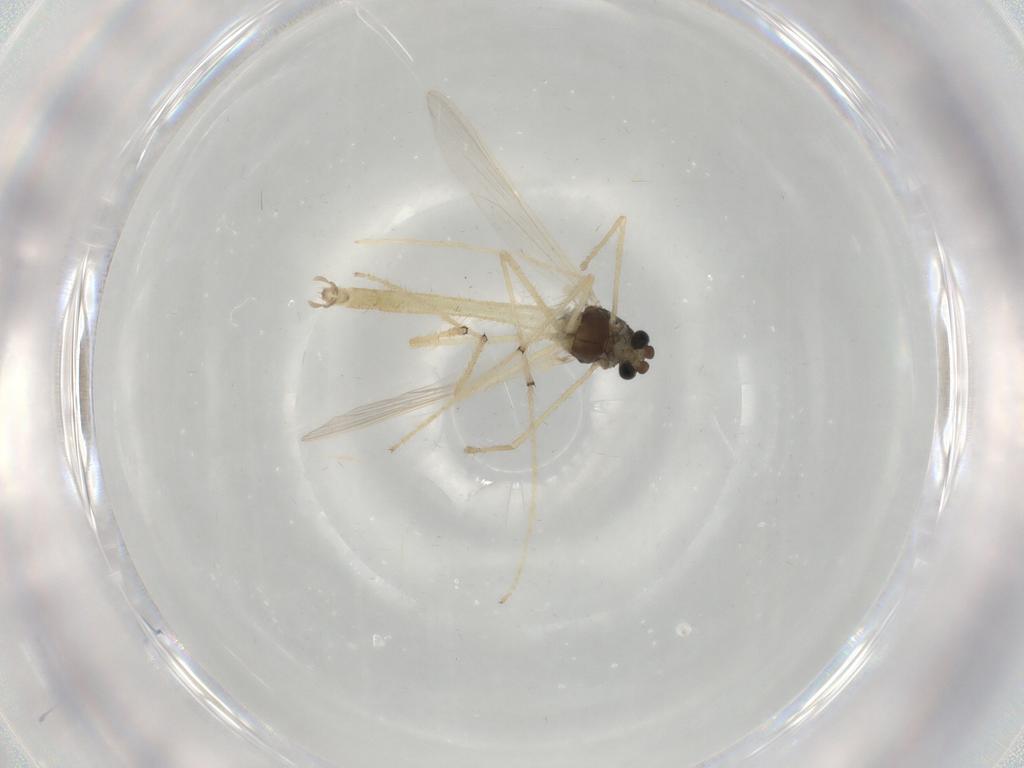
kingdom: Animalia
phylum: Arthropoda
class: Insecta
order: Diptera
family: Chironomidae
